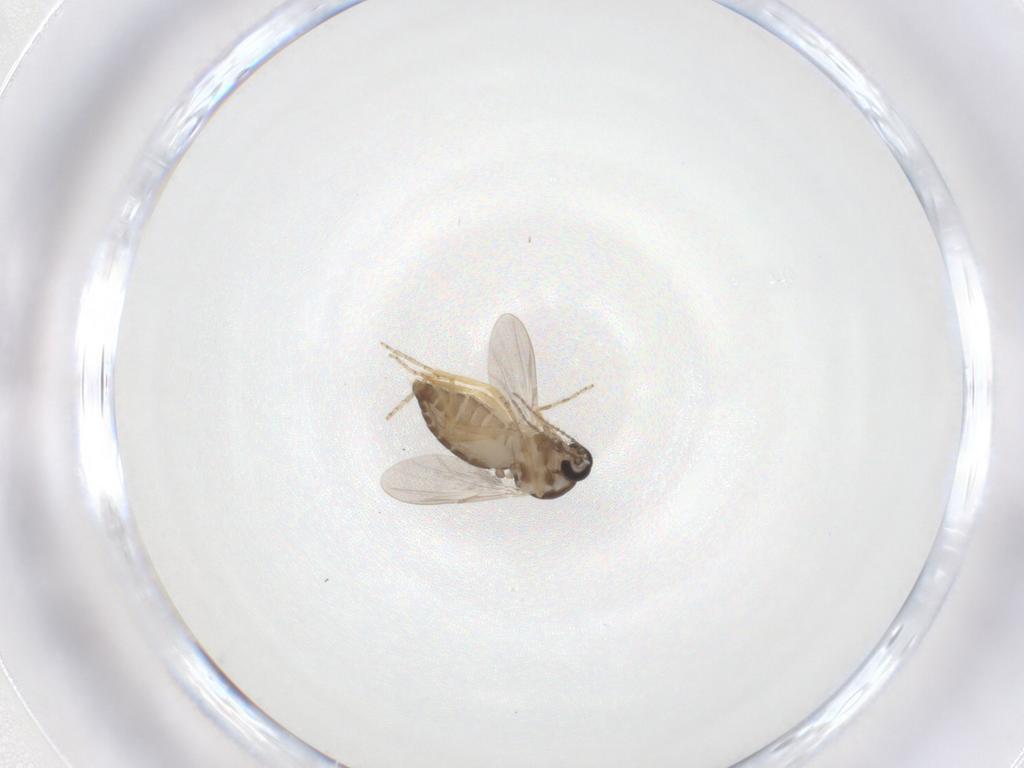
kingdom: Animalia
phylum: Arthropoda
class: Insecta
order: Diptera
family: Ceratopogonidae
